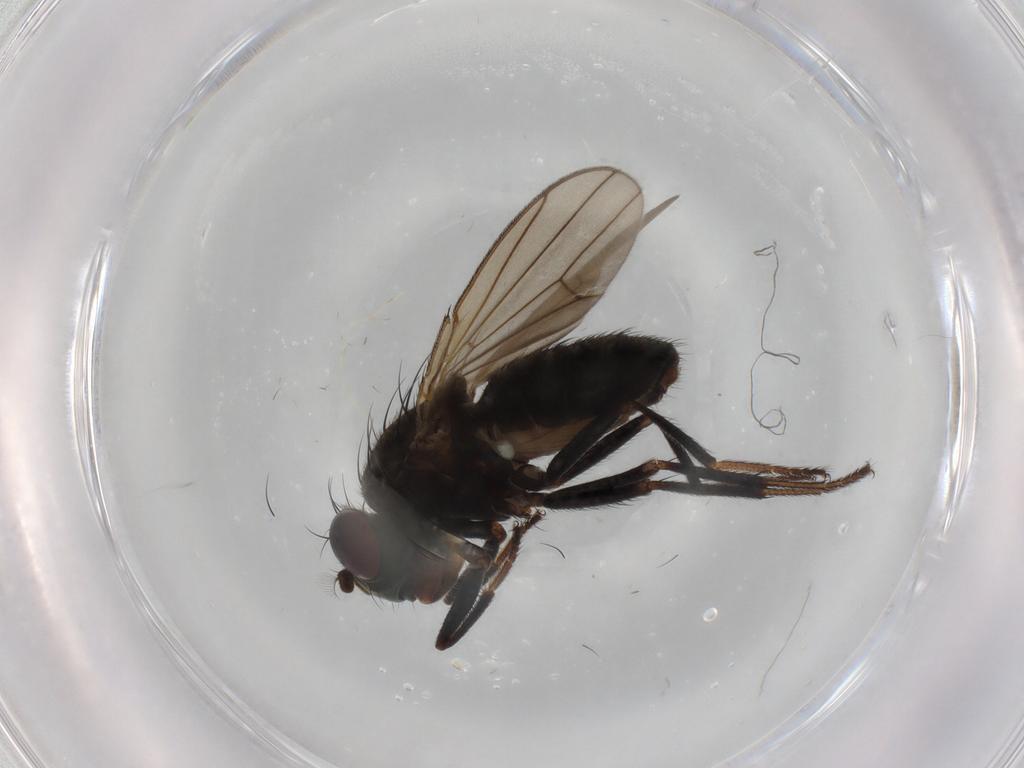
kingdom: Animalia
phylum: Arthropoda
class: Insecta
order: Diptera
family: Ephydridae
